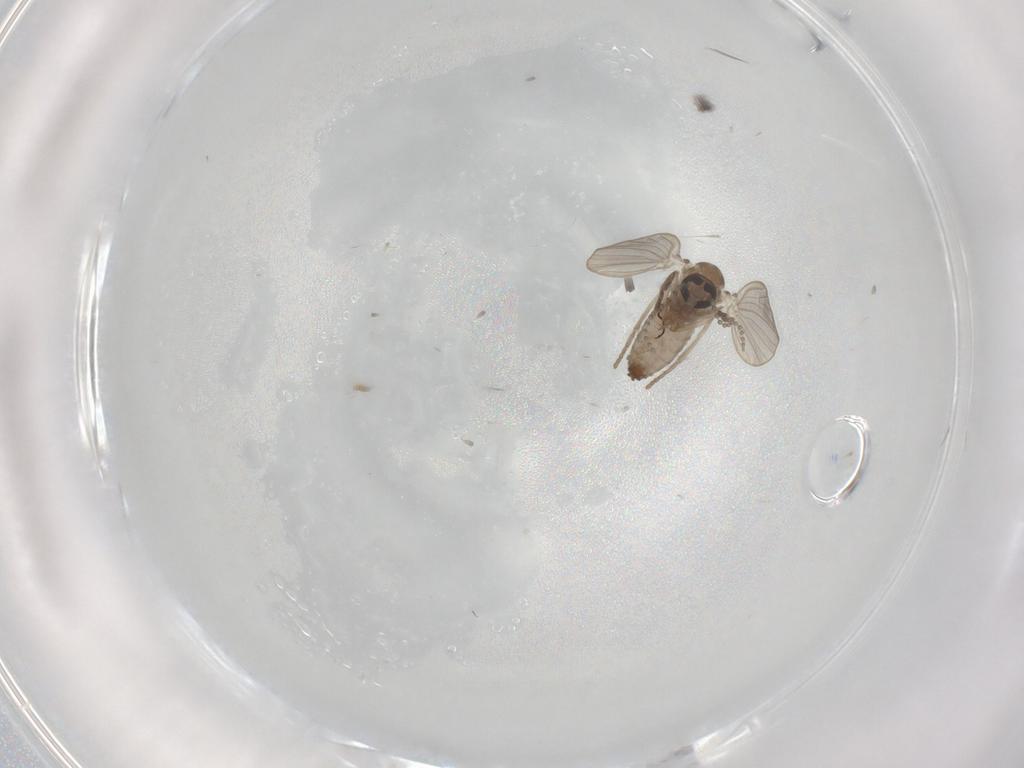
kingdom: Animalia
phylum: Arthropoda
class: Insecta
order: Diptera
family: Psychodidae
